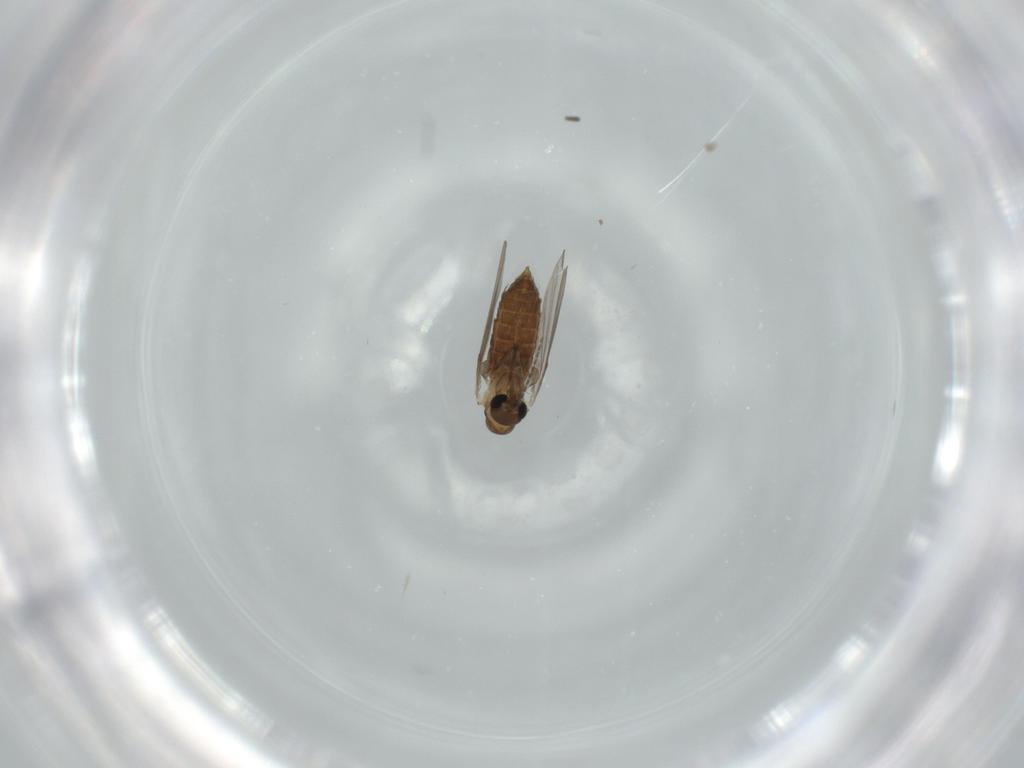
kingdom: Animalia
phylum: Arthropoda
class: Insecta
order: Diptera
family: Psychodidae
